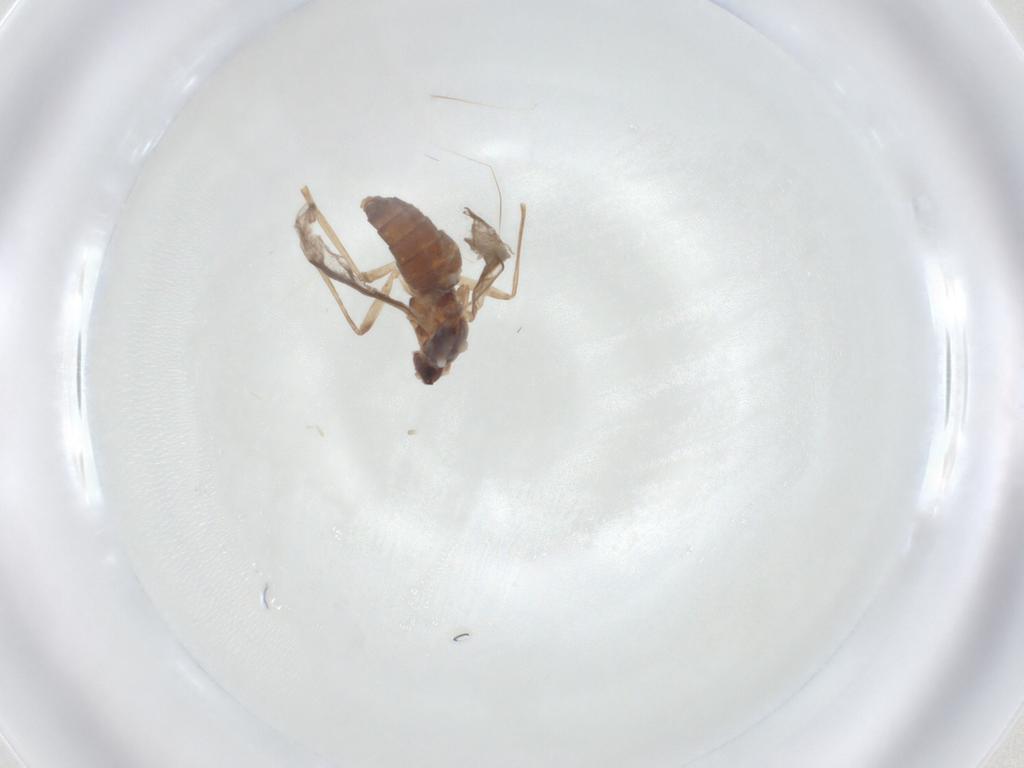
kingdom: Animalia
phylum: Arthropoda
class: Insecta
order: Diptera
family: Cecidomyiidae
